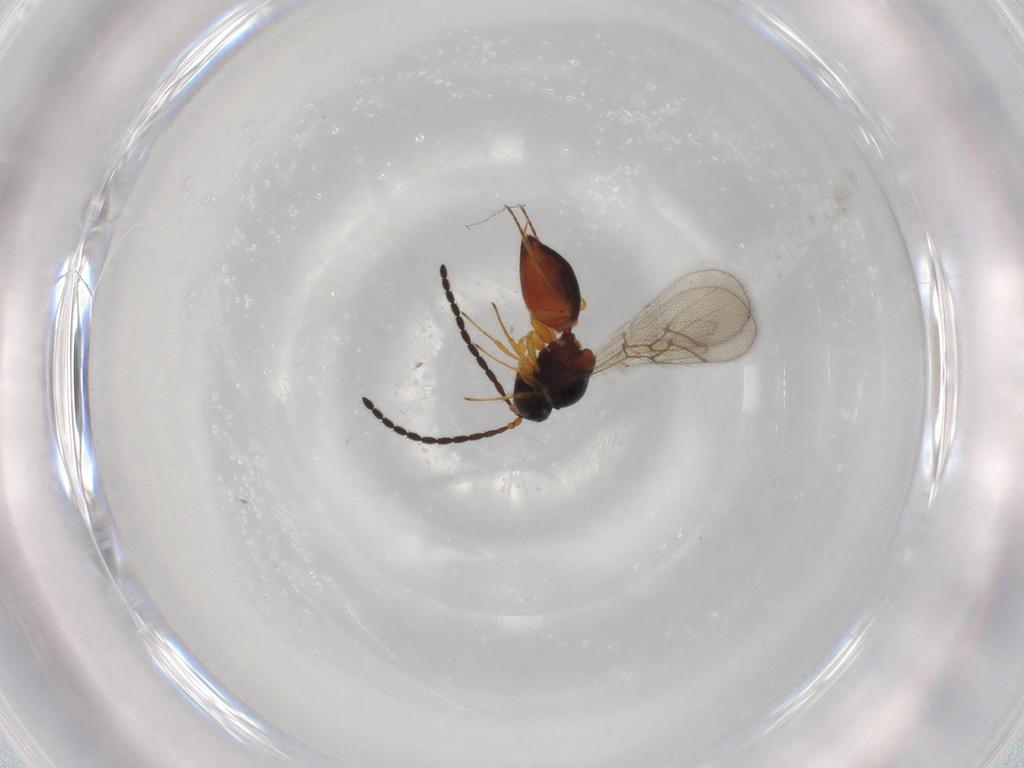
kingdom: Animalia
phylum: Arthropoda
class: Insecta
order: Hymenoptera
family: Figitidae
